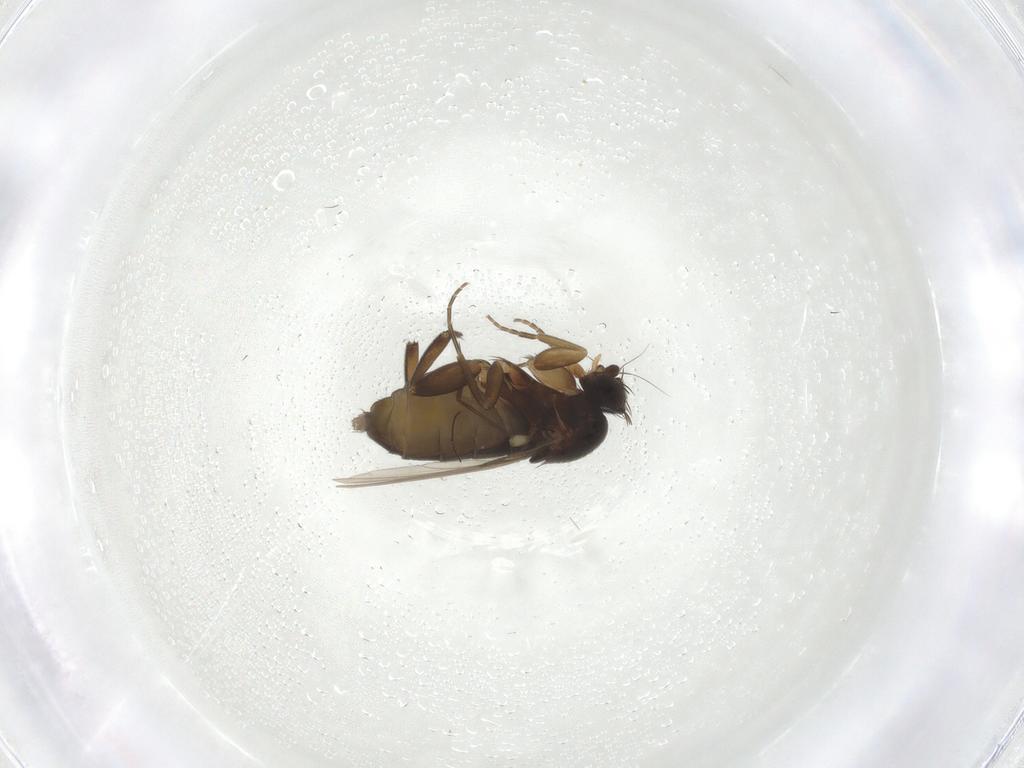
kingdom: Animalia
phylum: Arthropoda
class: Insecta
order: Diptera
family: Phoridae
